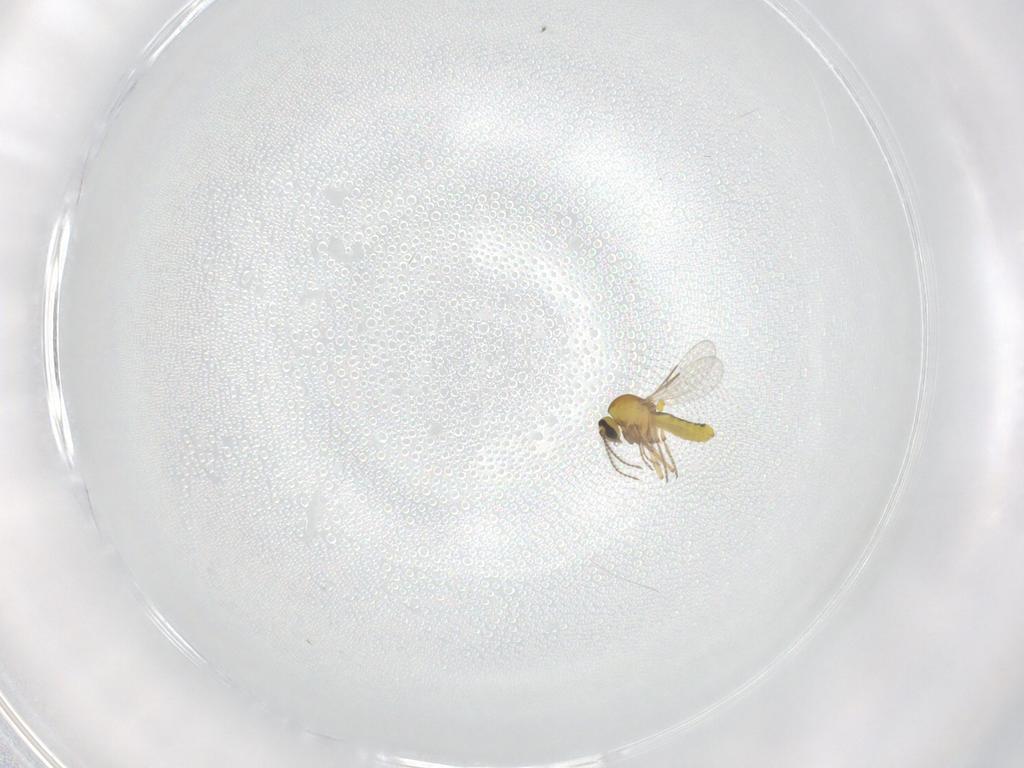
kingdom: Animalia
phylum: Arthropoda
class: Insecta
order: Diptera
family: Ceratopogonidae
